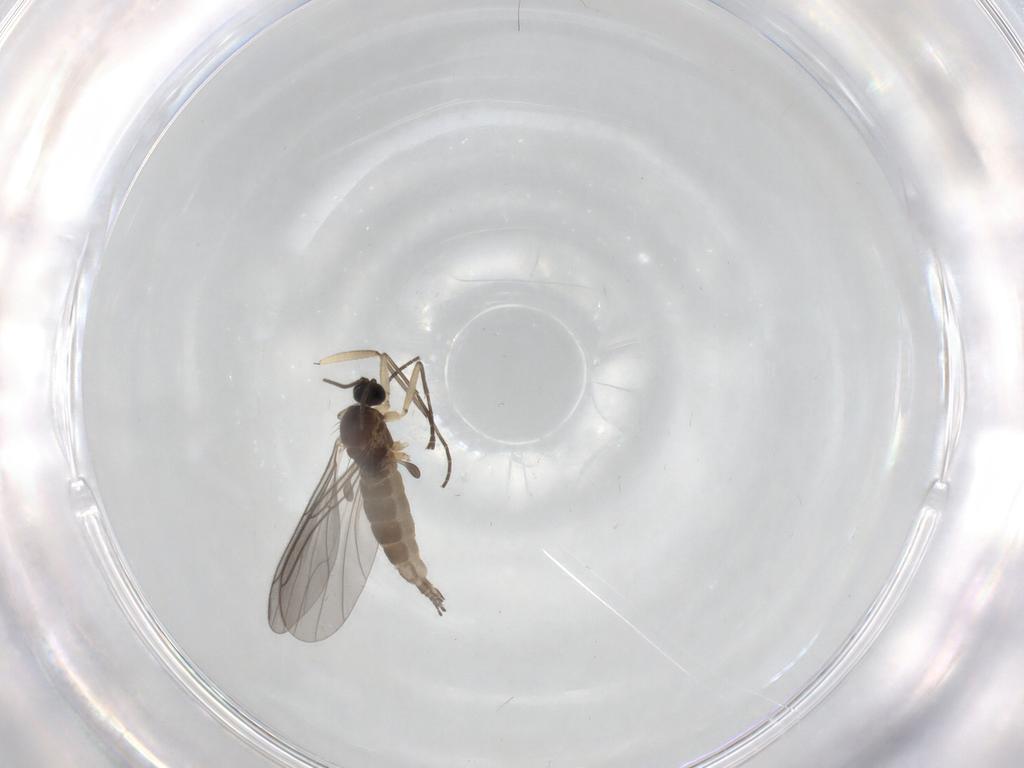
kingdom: Animalia
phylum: Arthropoda
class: Insecta
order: Diptera
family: Sciaridae
